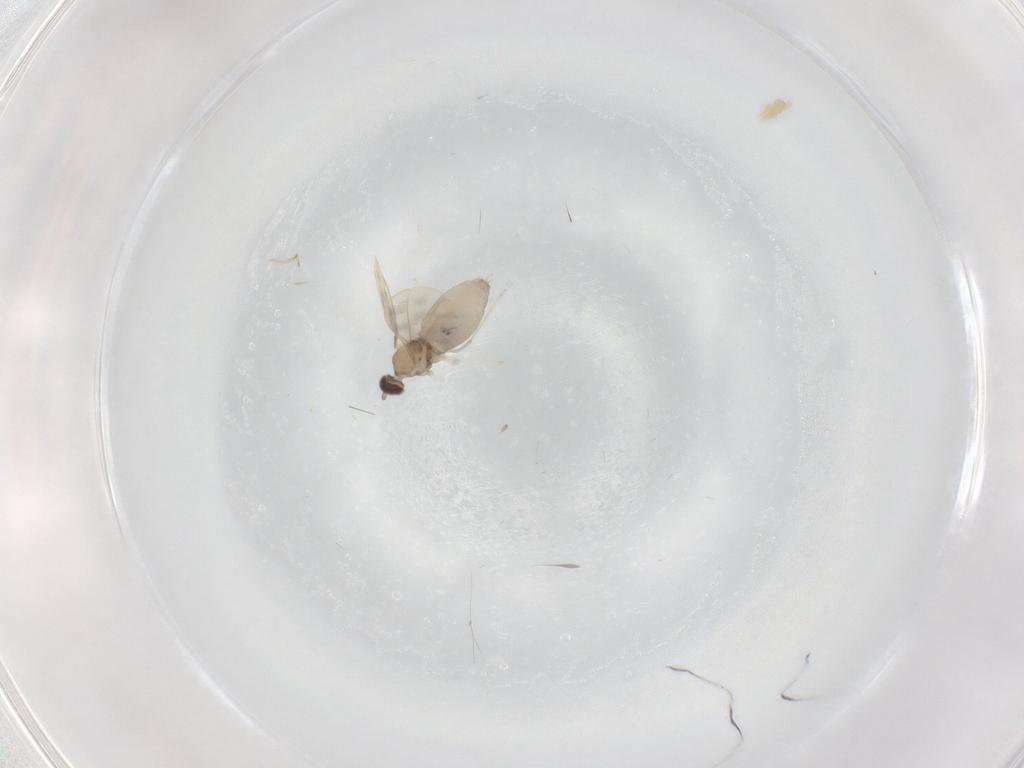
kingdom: Animalia
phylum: Arthropoda
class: Insecta
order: Diptera
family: Cecidomyiidae
